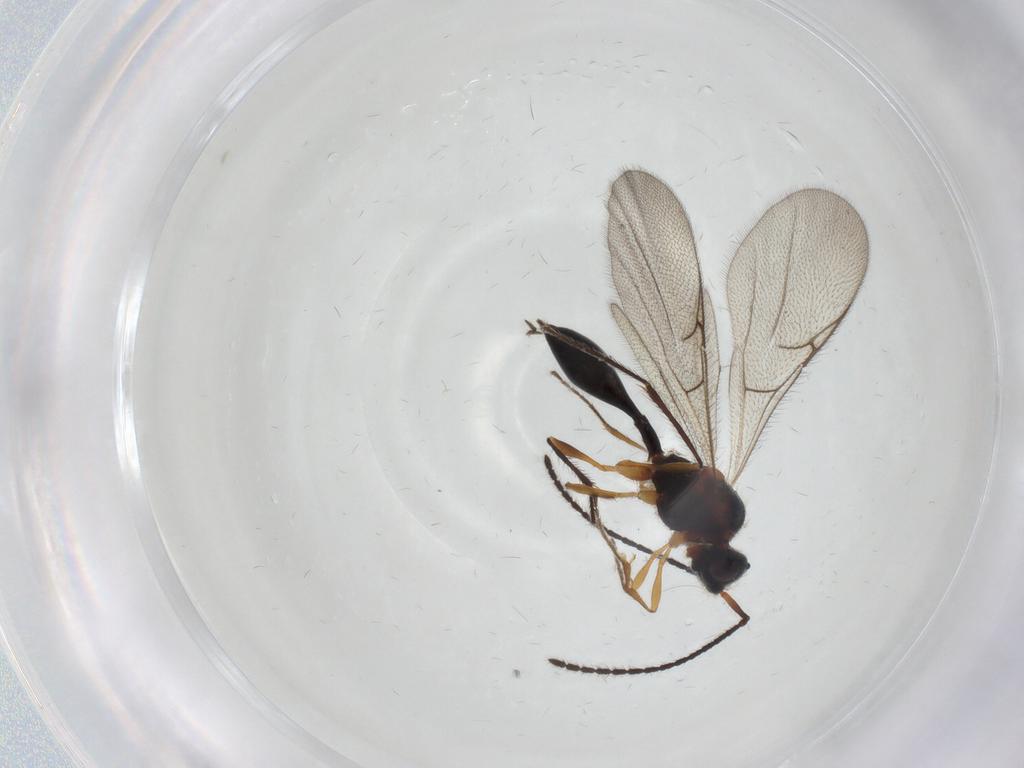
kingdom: Animalia
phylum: Arthropoda
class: Insecta
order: Hymenoptera
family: Diapriidae
